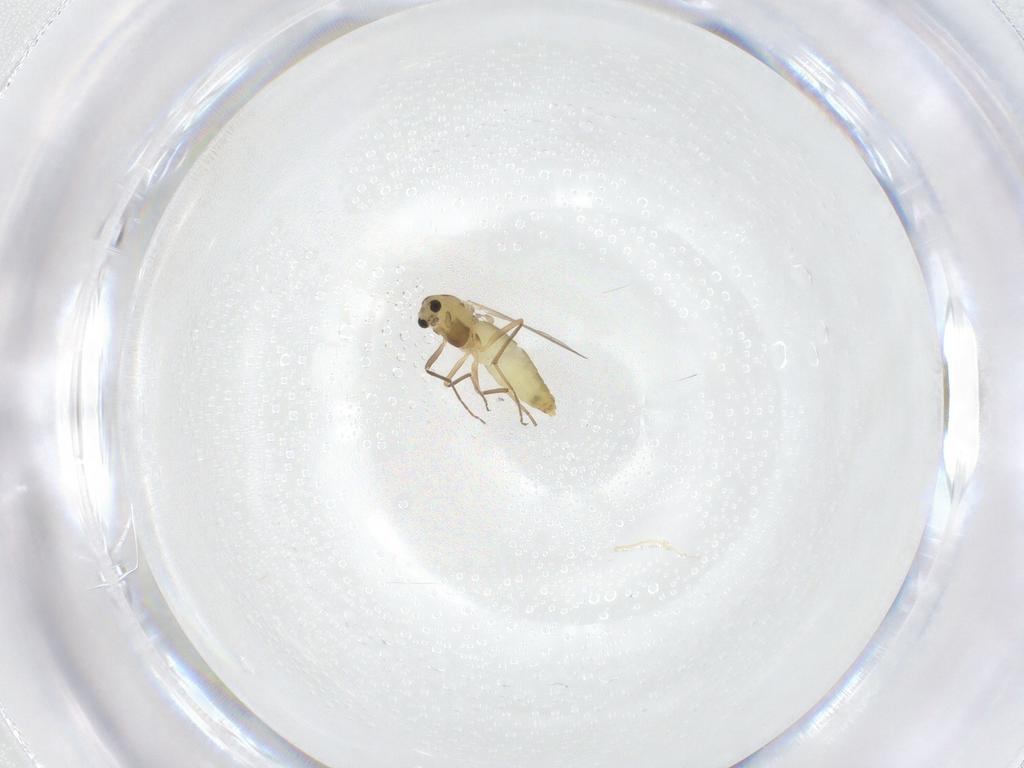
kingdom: Animalia
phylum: Arthropoda
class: Insecta
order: Diptera
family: Chironomidae
